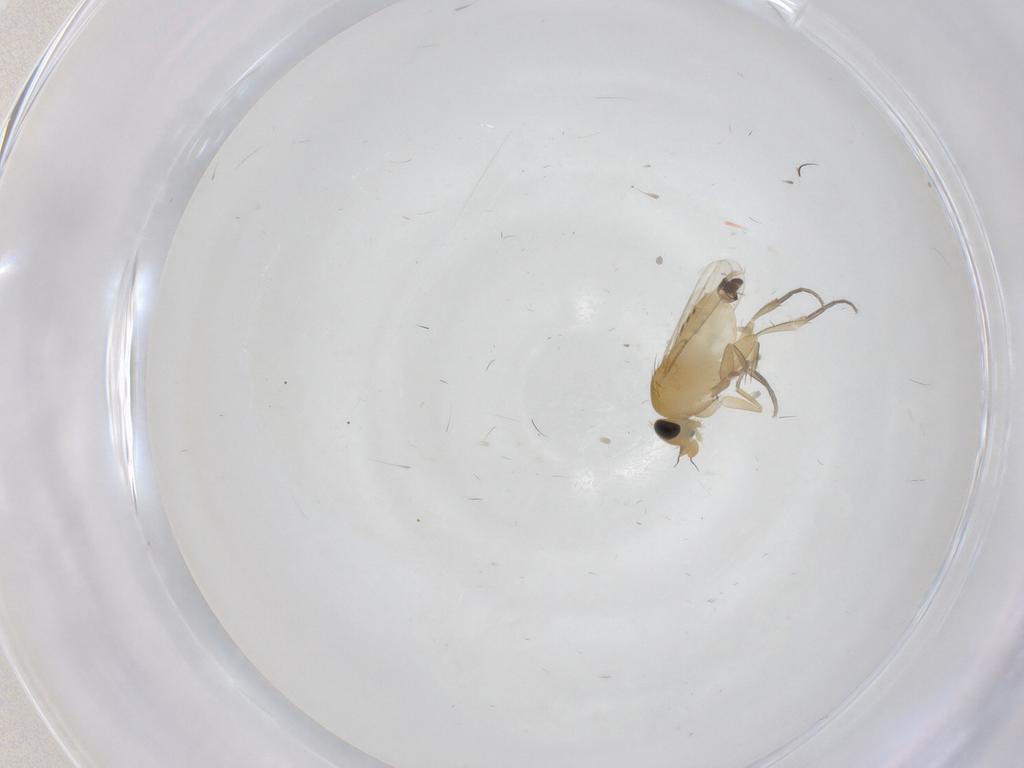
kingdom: Animalia
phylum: Arthropoda
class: Insecta
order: Diptera
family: Phoridae
